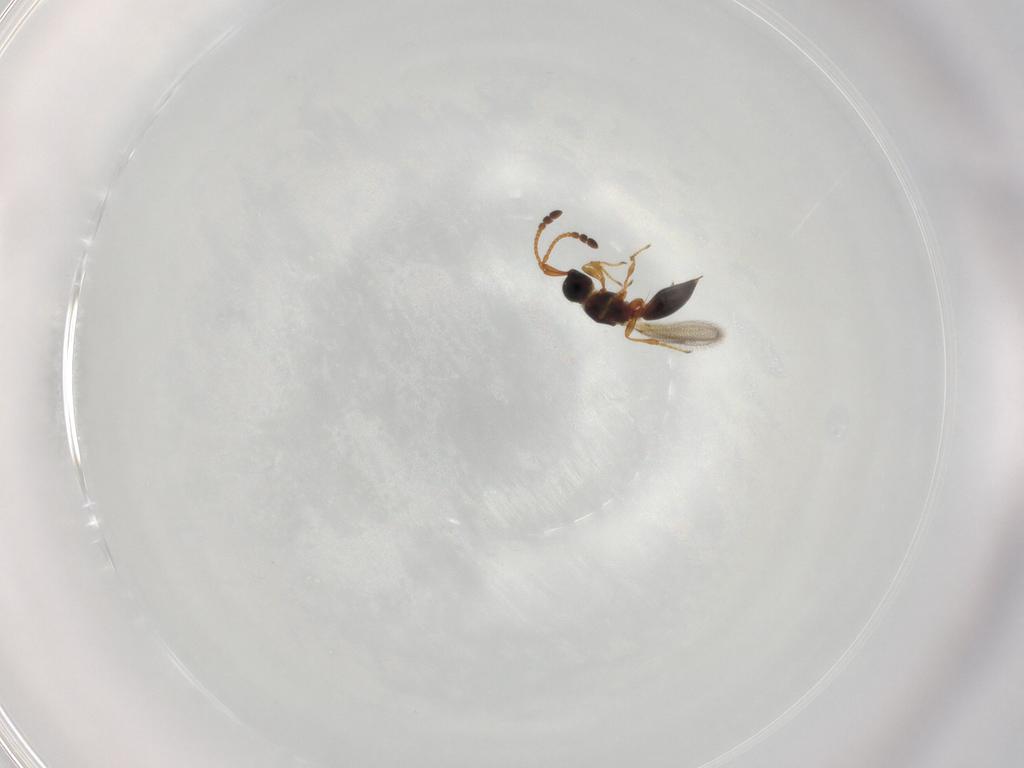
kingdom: Animalia
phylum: Arthropoda
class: Insecta
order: Hymenoptera
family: Diapriidae
